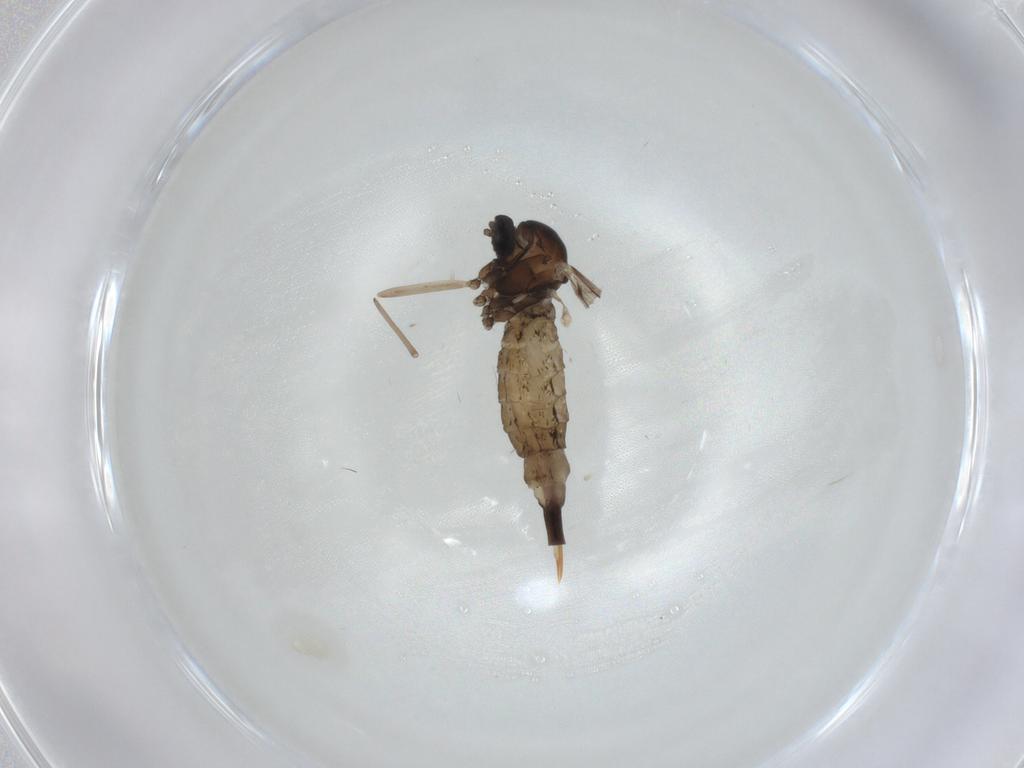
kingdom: Animalia
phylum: Arthropoda
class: Insecta
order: Diptera
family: Cecidomyiidae
